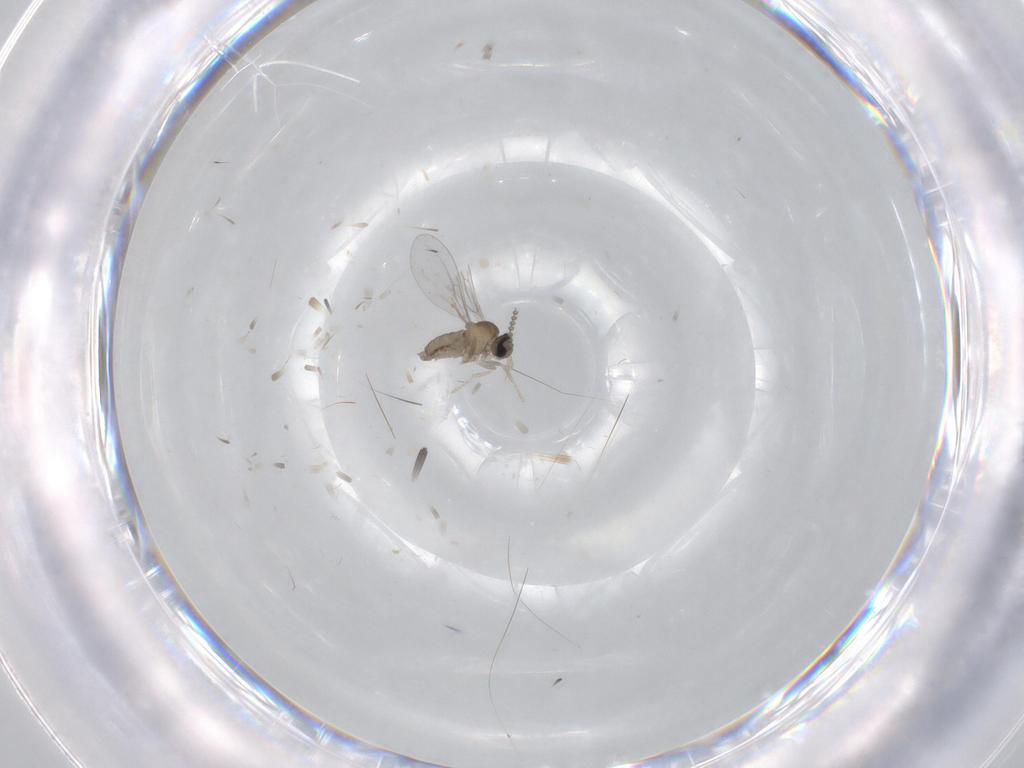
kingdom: Animalia
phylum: Arthropoda
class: Insecta
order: Diptera
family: Cecidomyiidae
